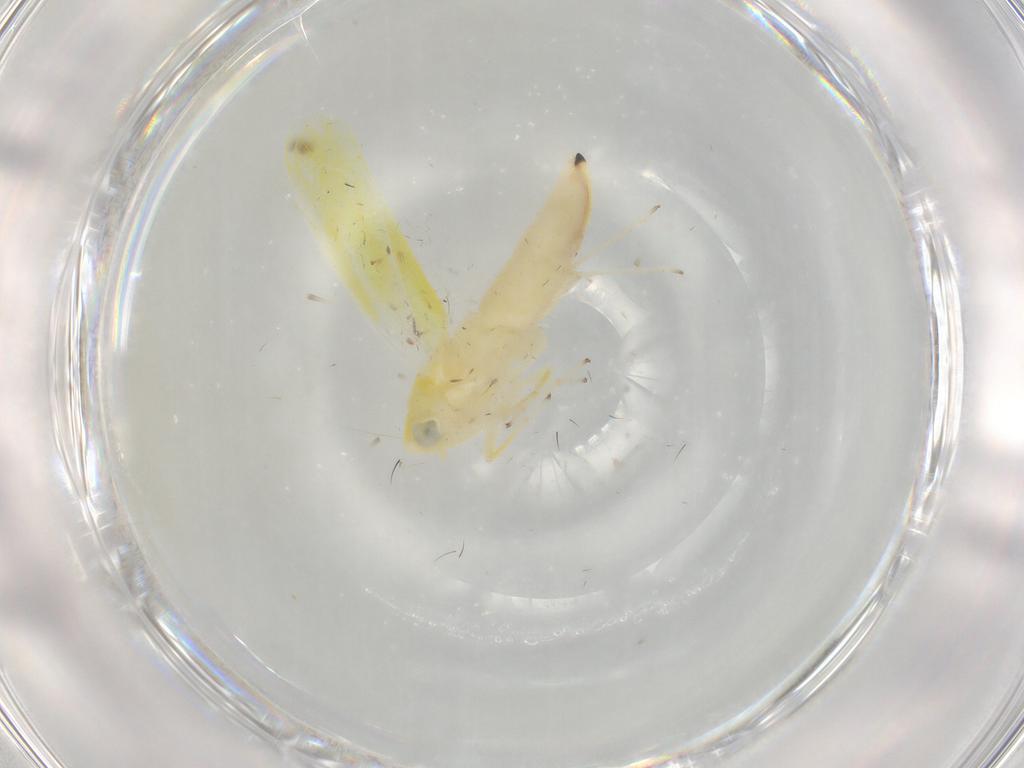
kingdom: Animalia
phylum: Arthropoda
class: Insecta
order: Hemiptera
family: Cicadellidae
